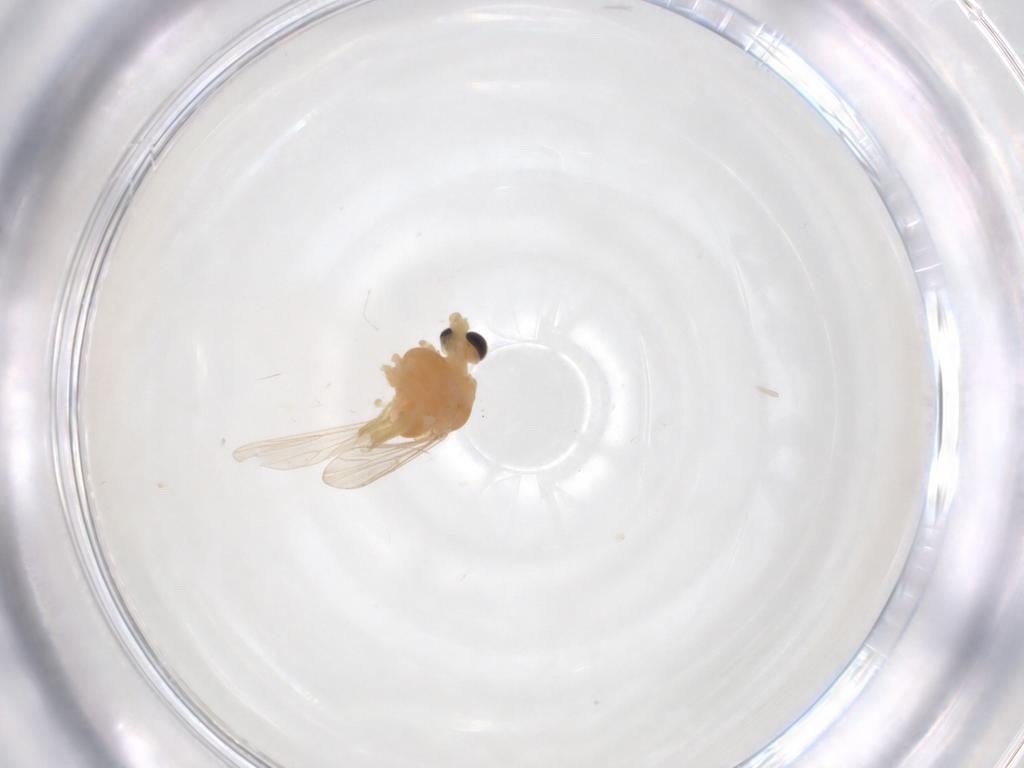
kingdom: Animalia
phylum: Arthropoda
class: Insecta
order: Diptera
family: Chironomidae
